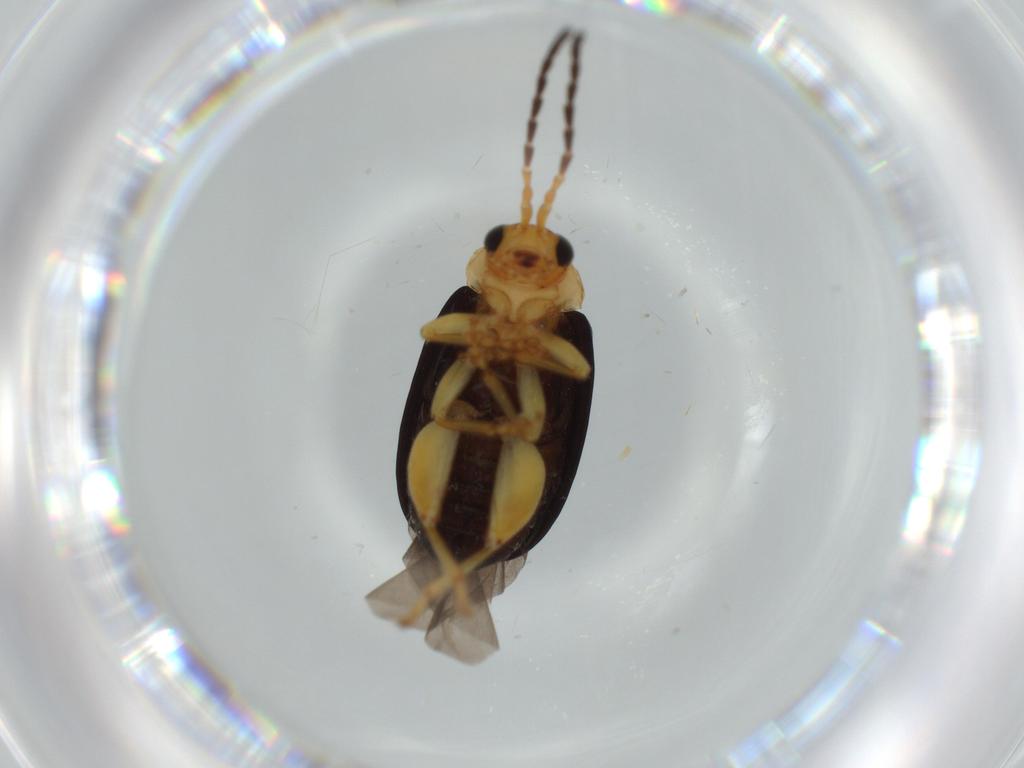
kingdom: Animalia
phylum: Arthropoda
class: Insecta
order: Coleoptera
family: Chrysomelidae
